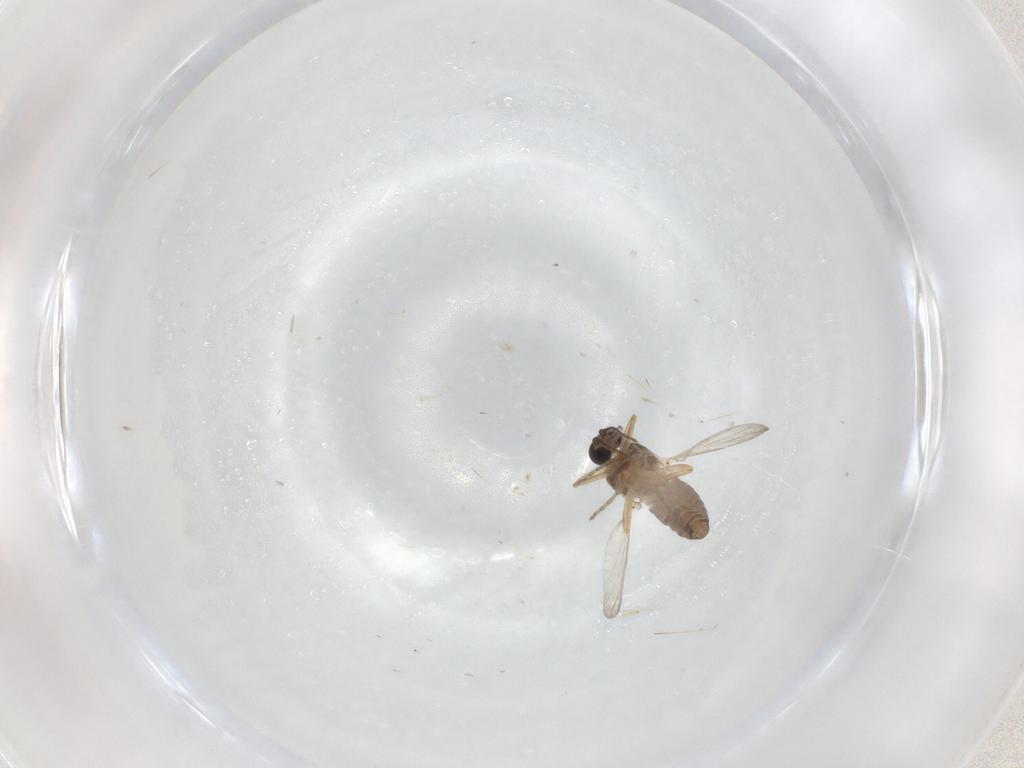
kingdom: Animalia
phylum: Arthropoda
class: Insecta
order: Diptera
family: Ceratopogonidae
